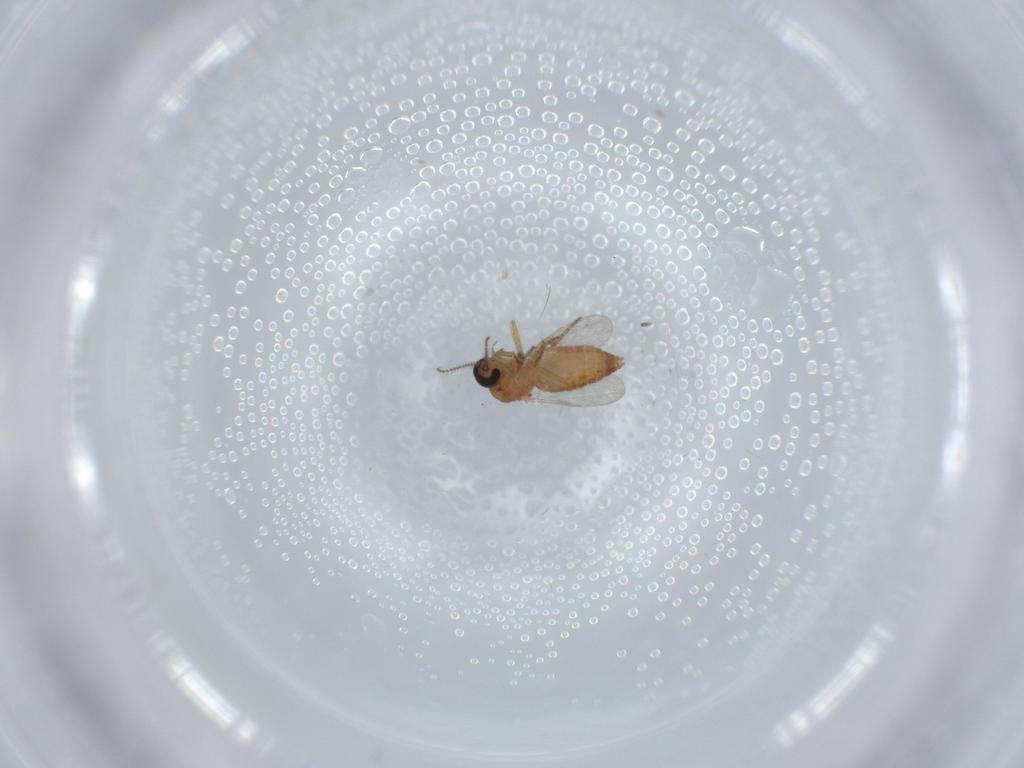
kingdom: Animalia
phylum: Arthropoda
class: Insecta
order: Diptera
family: Ceratopogonidae
